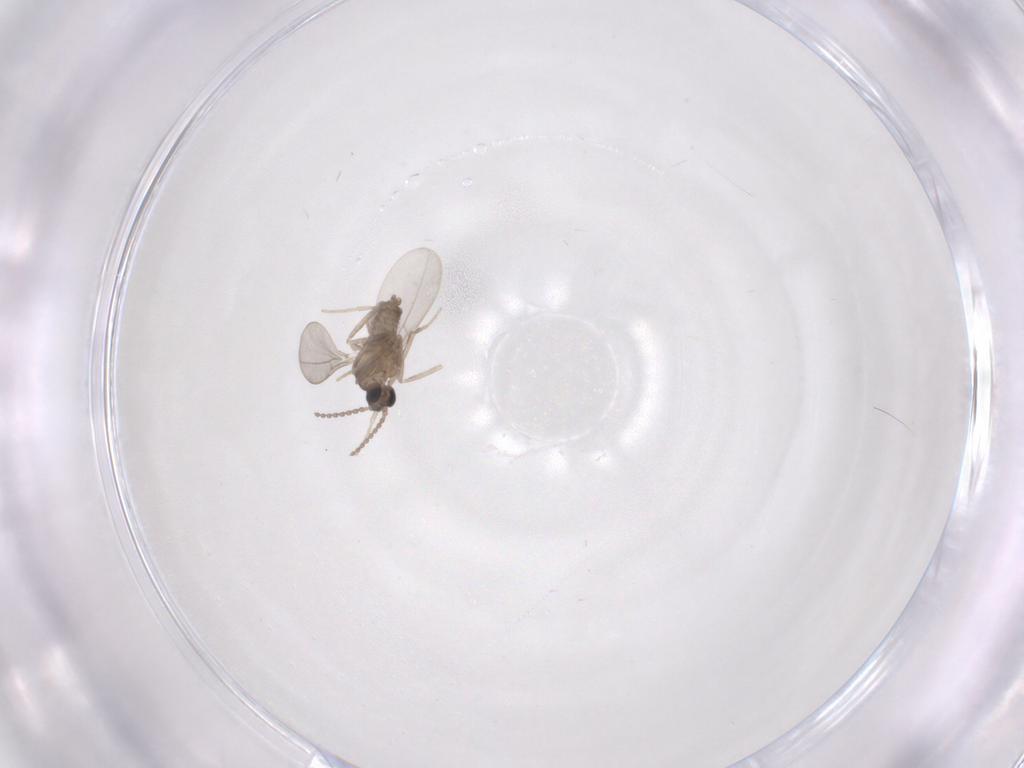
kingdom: Animalia
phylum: Arthropoda
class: Insecta
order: Diptera
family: Cecidomyiidae
